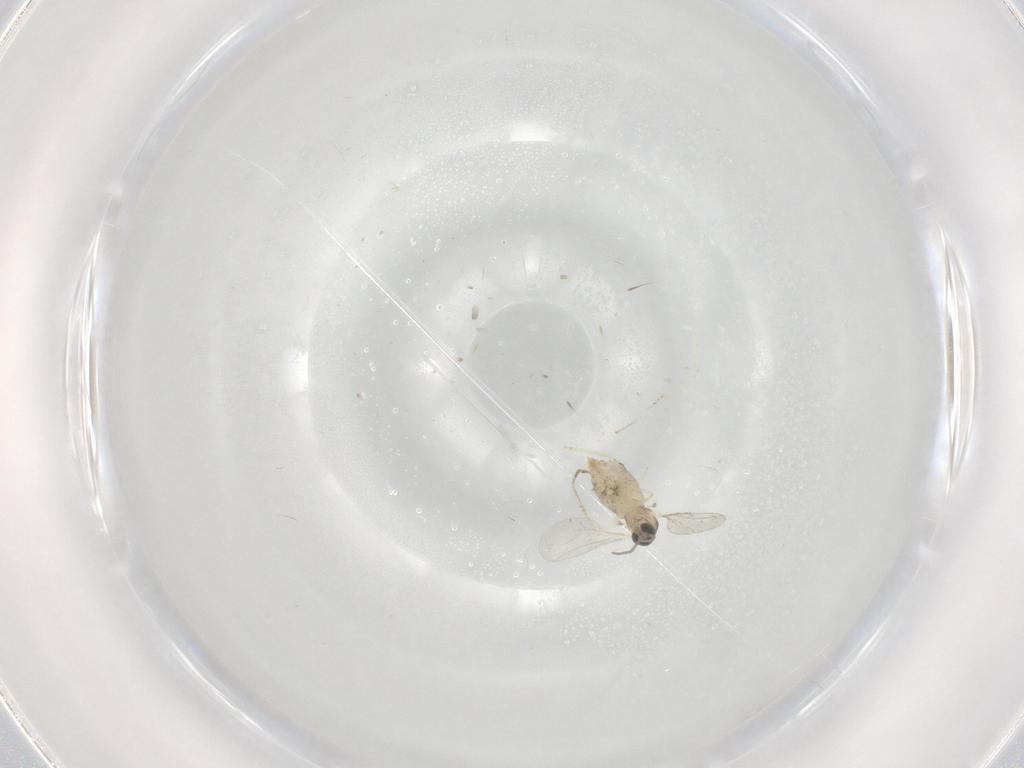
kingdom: Animalia
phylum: Arthropoda
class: Insecta
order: Diptera
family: Cecidomyiidae
